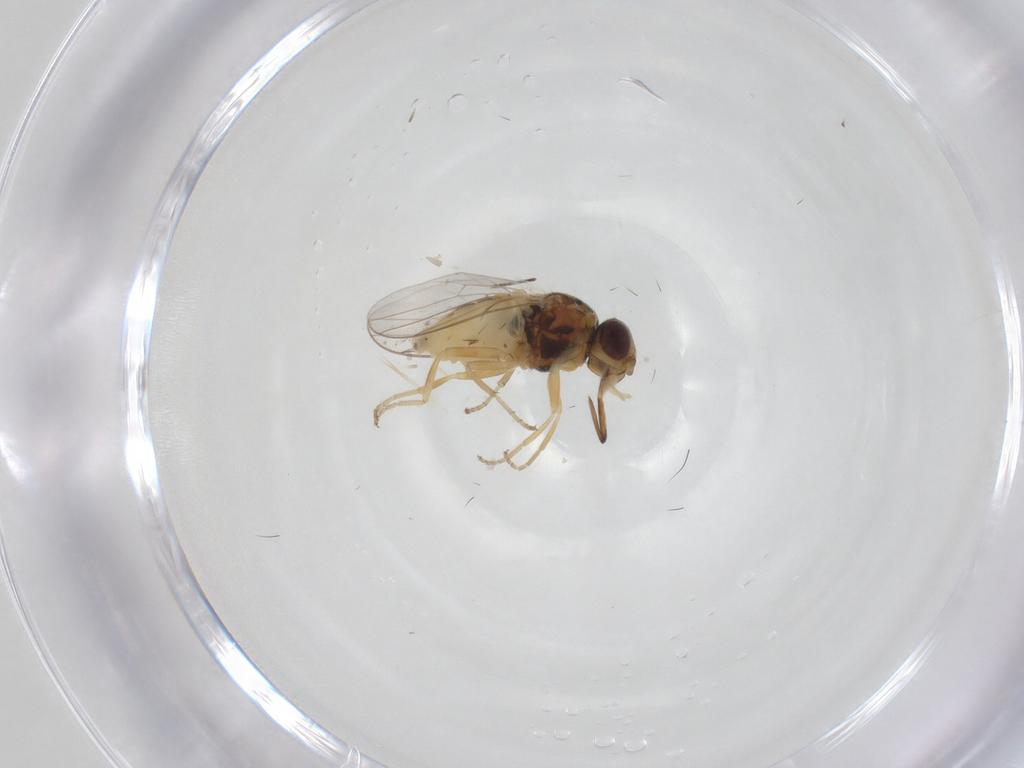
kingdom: Animalia
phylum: Arthropoda
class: Insecta
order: Diptera
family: Chloropidae
